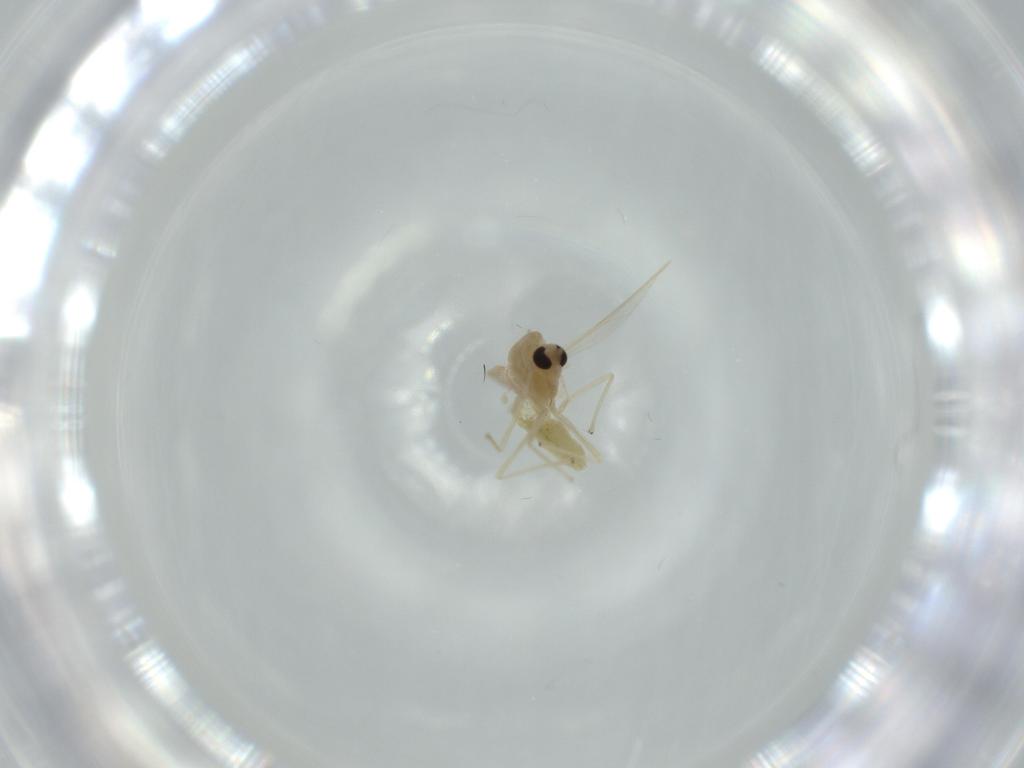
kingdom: Animalia
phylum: Arthropoda
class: Insecta
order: Diptera
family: Chironomidae
